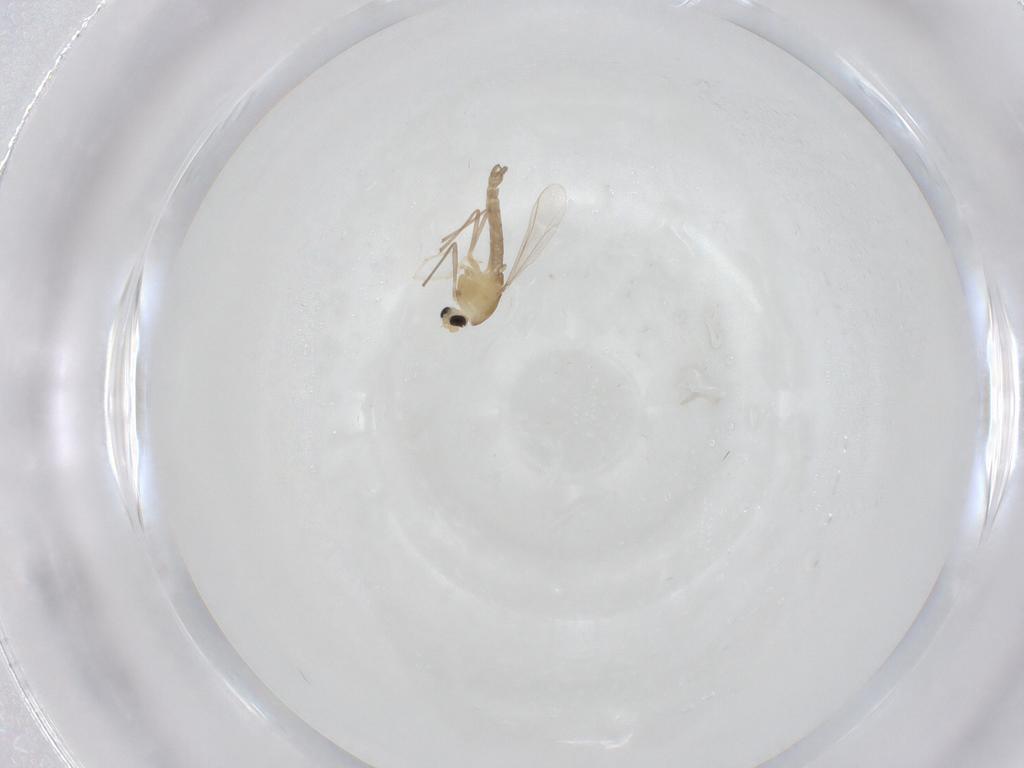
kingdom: Animalia
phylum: Arthropoda
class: Insecta
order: Diptera
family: Chironomidae
